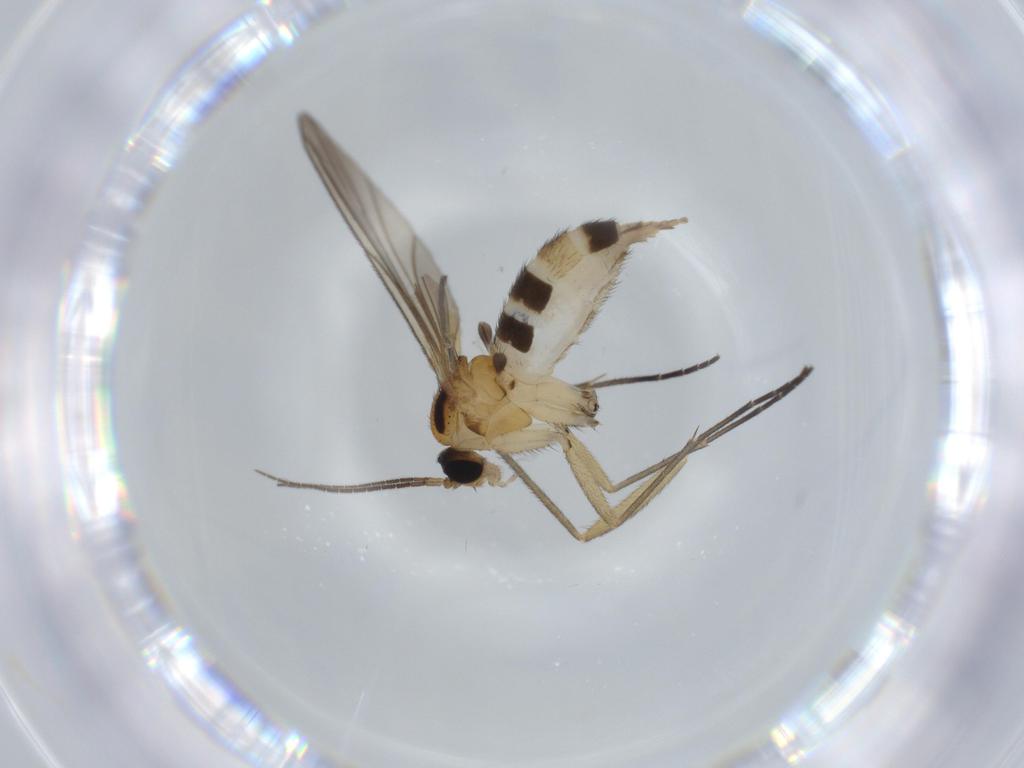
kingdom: Animalia
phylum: Arthropoda
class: Insecta
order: Diptera
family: Sciaridae
